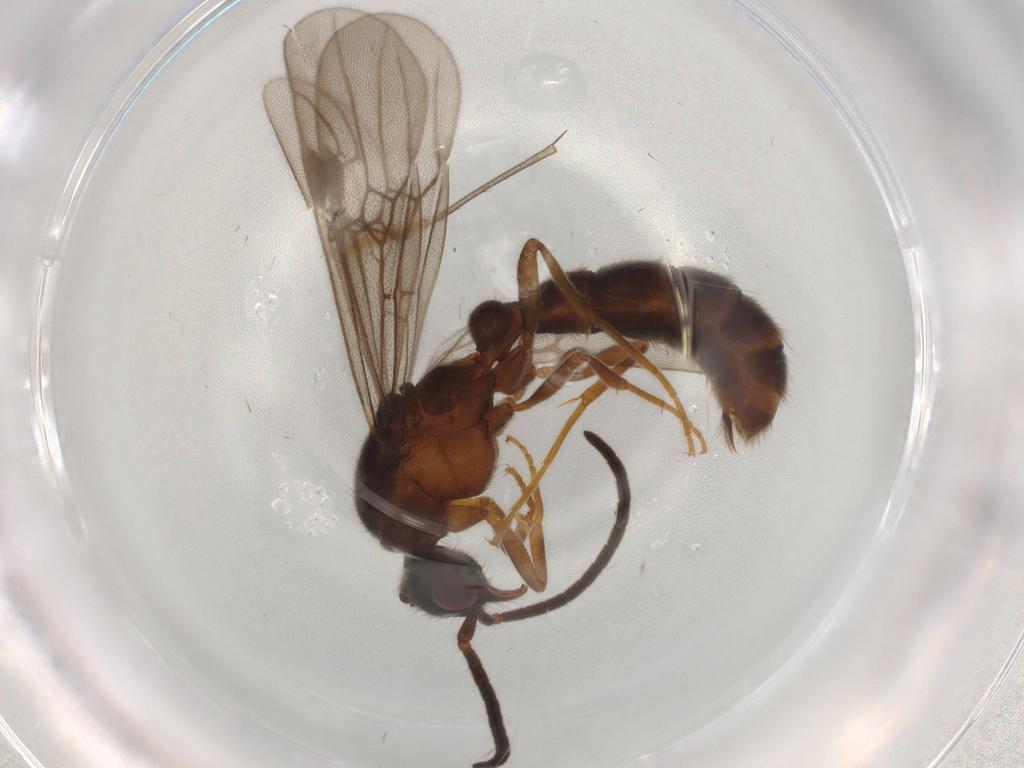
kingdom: Animalia
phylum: Arthropoda
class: Insecta
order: Hymenoptera
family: Formicidae
